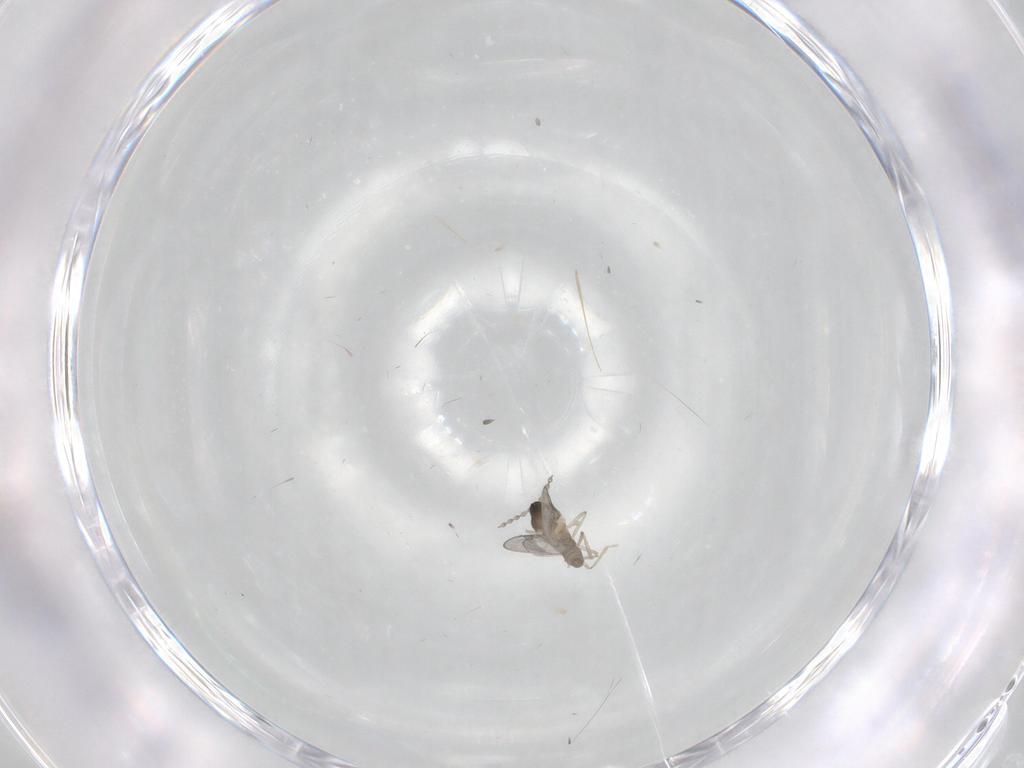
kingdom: Animalia
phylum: Arthropoda
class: Insecta
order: Diptera
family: Cecidomyiidae
